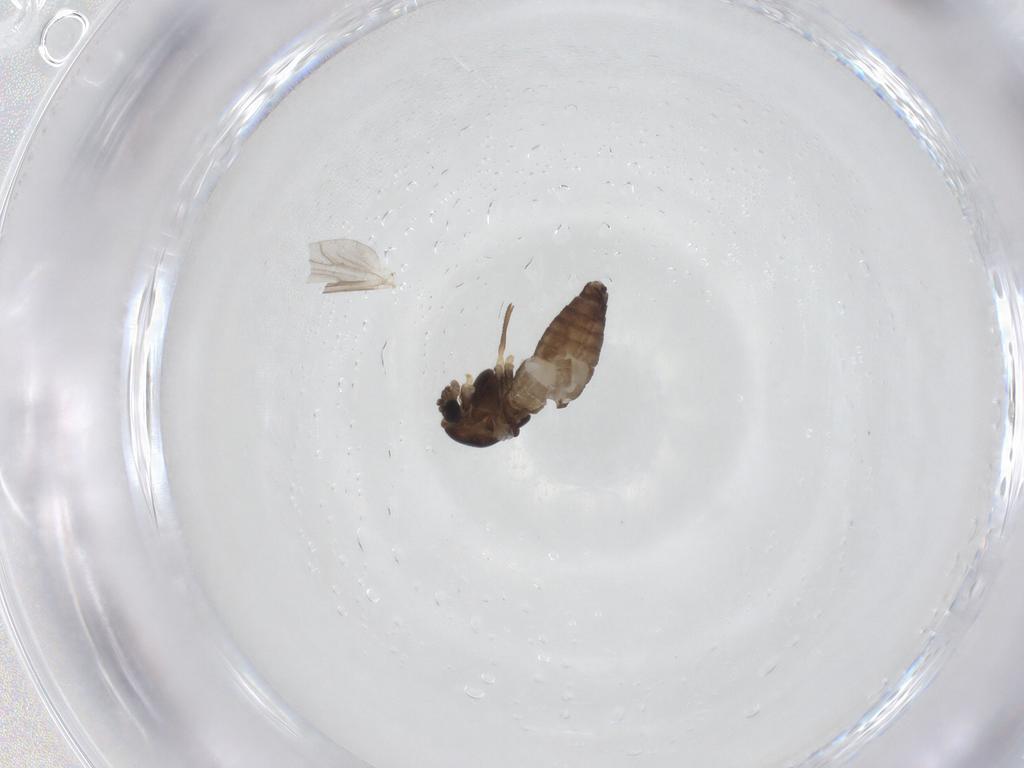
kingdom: Animalia
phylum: Arthropoda
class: Insecta
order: Diptera
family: Chironomidae
